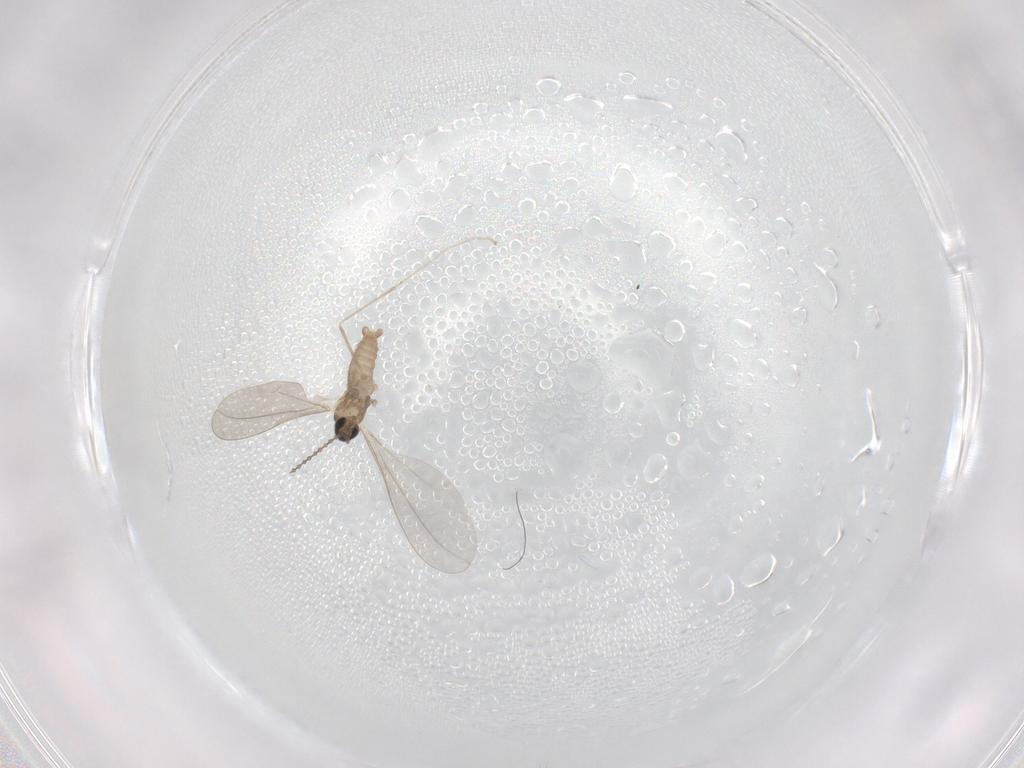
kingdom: Animalia
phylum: Arthropoda
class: Insecta
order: Diptera
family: Cecidomyiidae
